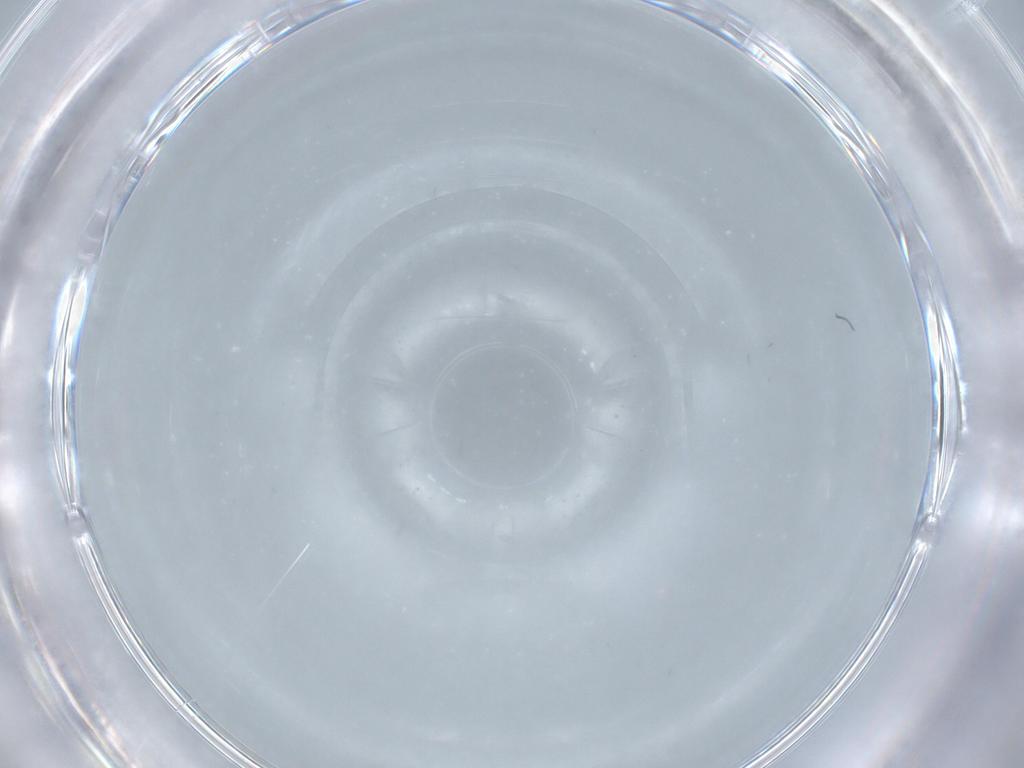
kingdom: Animalia
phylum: Arthropoda
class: Insecta
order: Hymenoptera
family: Mymaridae
